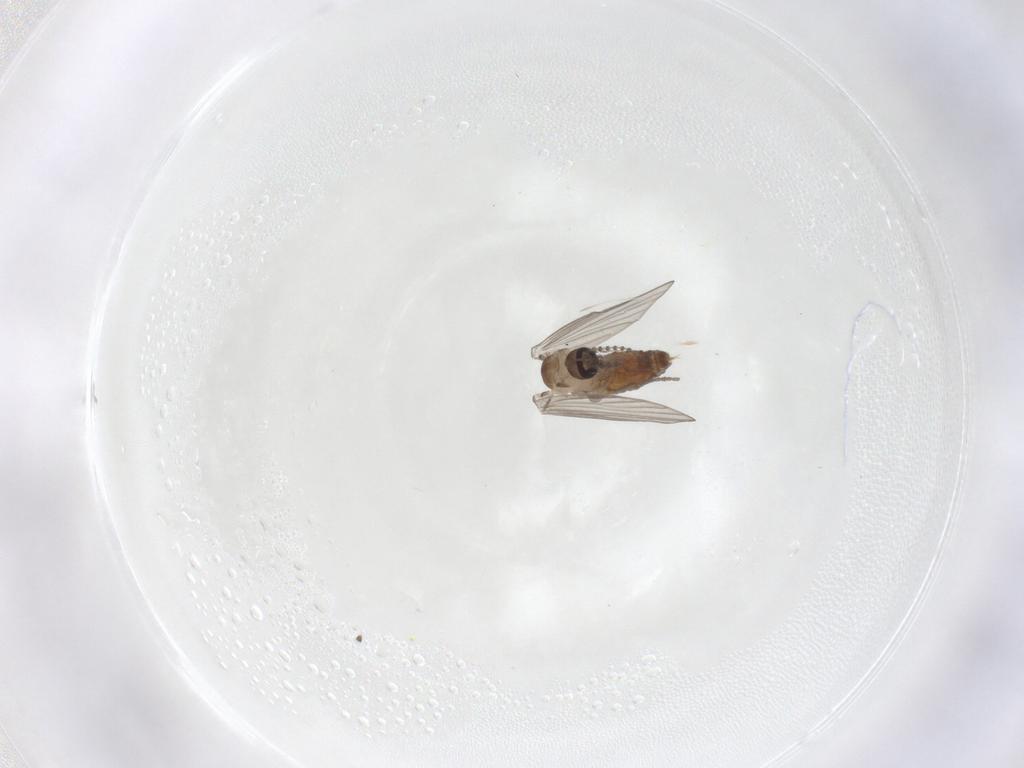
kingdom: Animalia
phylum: Arthropoda
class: Insecta
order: Diptera
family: Psychodidae
